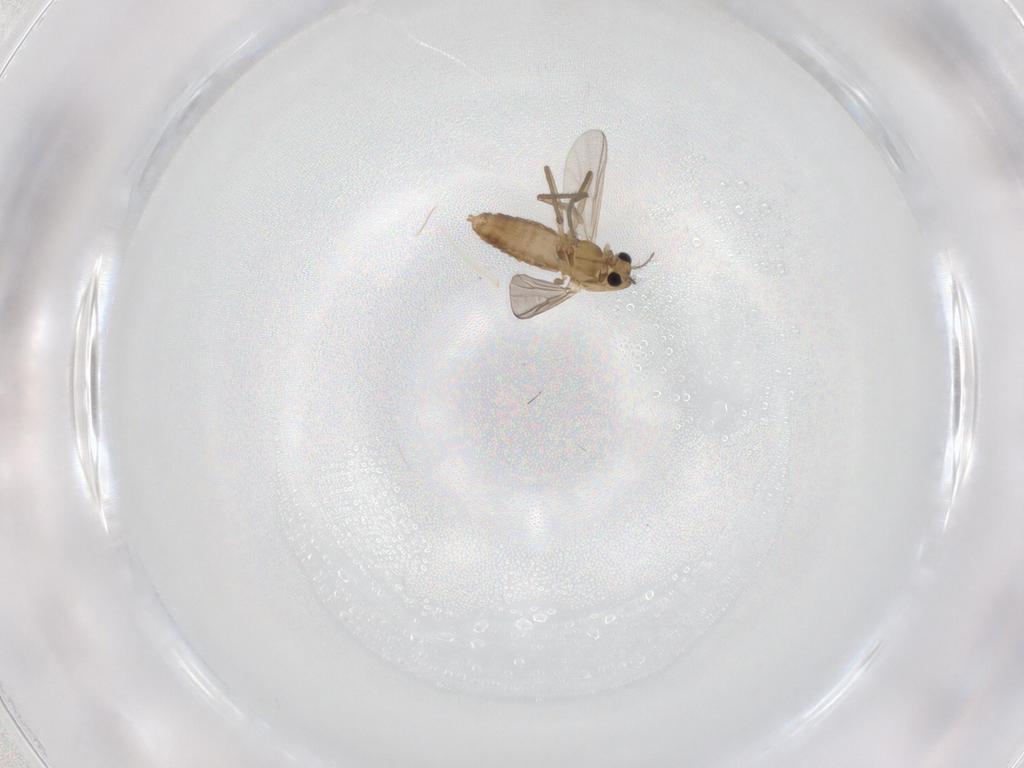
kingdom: Animalia
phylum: Arthropoda
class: Insecta
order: Diptera
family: Chironomidae
